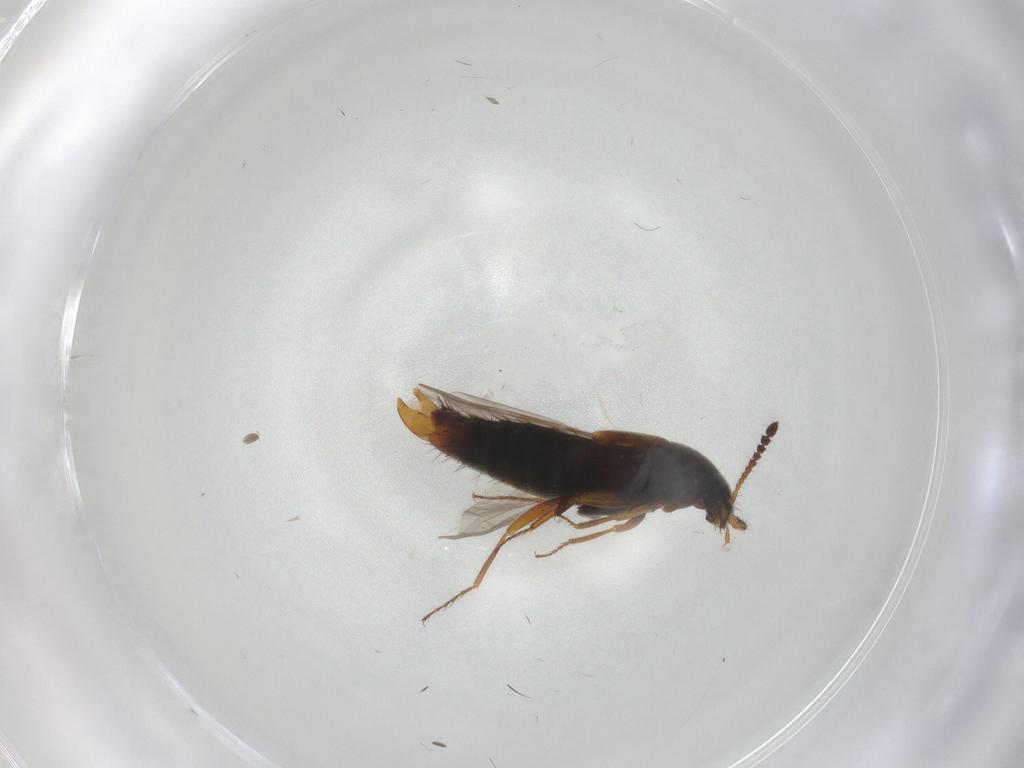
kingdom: Animalia
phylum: Arthropoda
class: Insecta
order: Coleoptera
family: Staphylinidae
